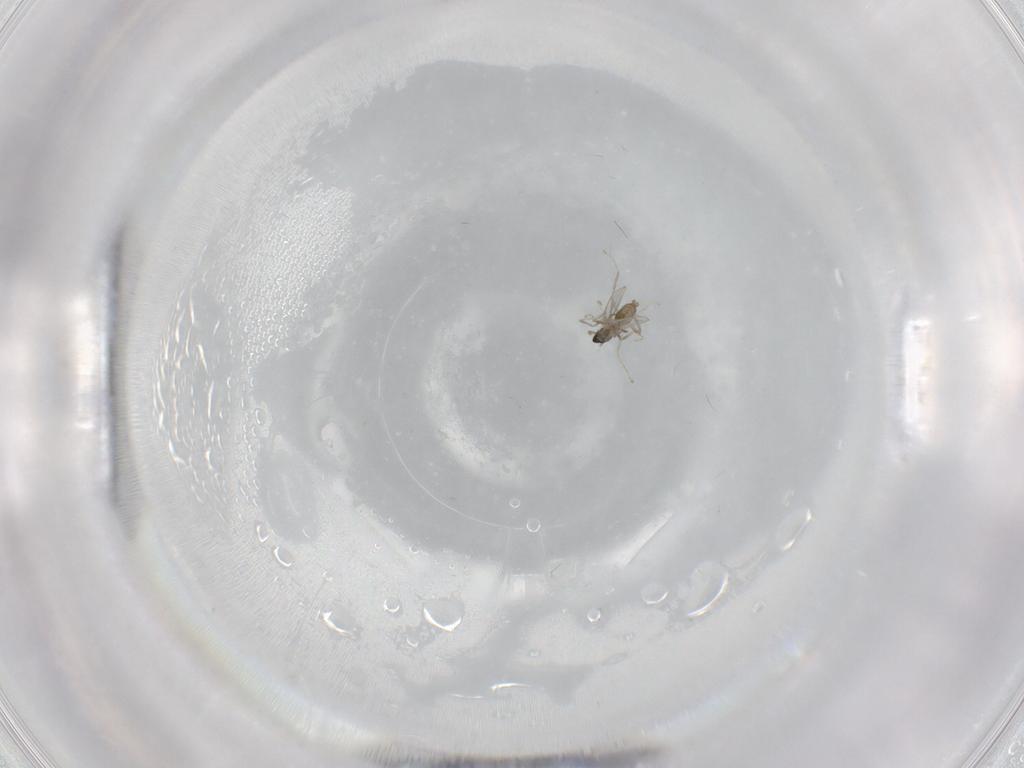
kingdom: Animalia
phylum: Arthropoda
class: Insecta
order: Diptera
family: Cecidomyiidae
